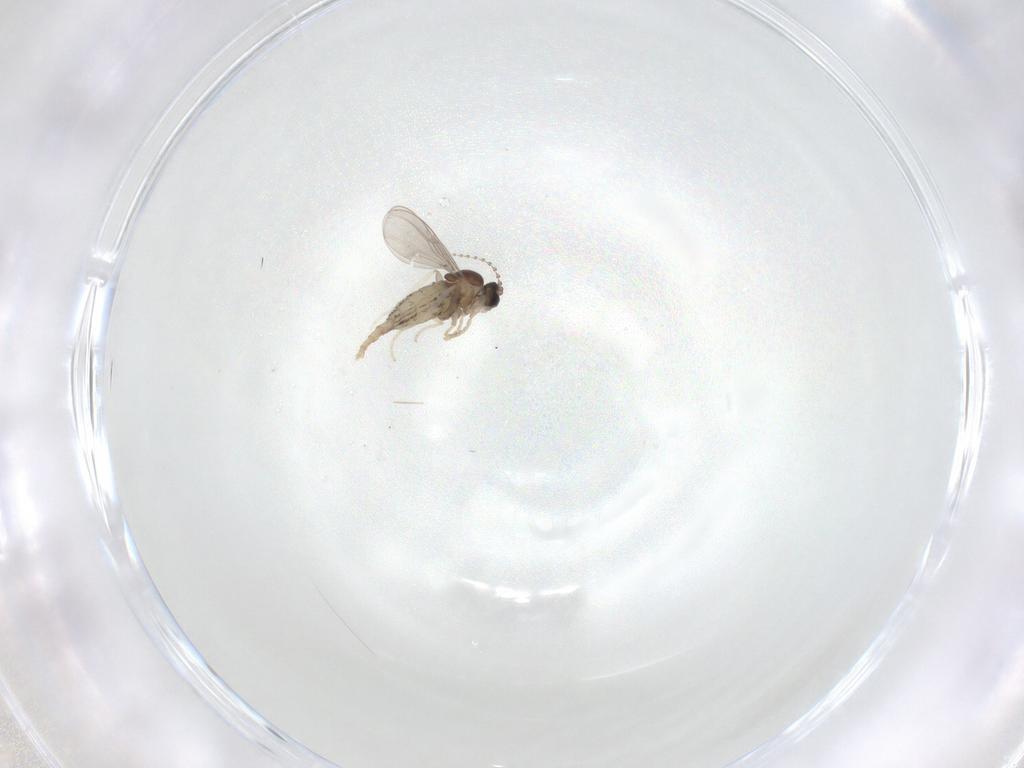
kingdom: Animalia
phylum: Arthropoda
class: Insecta
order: Diptera
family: Cecidomyiidae
